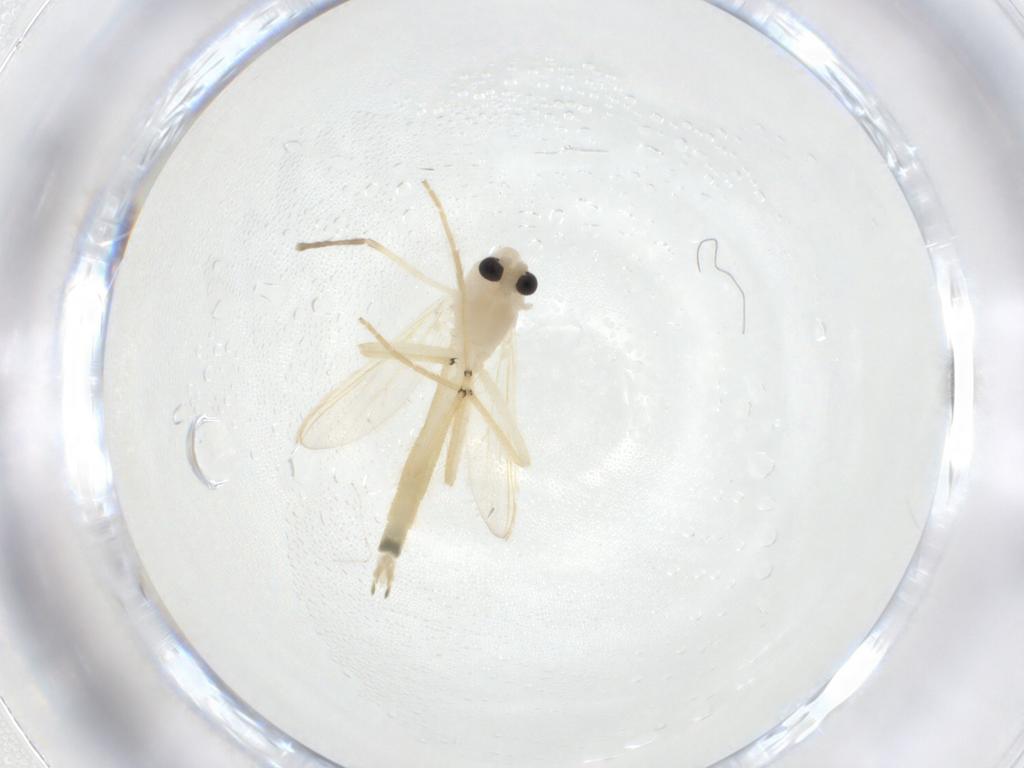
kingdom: Animalia
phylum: Arthropoda
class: Insecta
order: Diptera
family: Chironomidae
